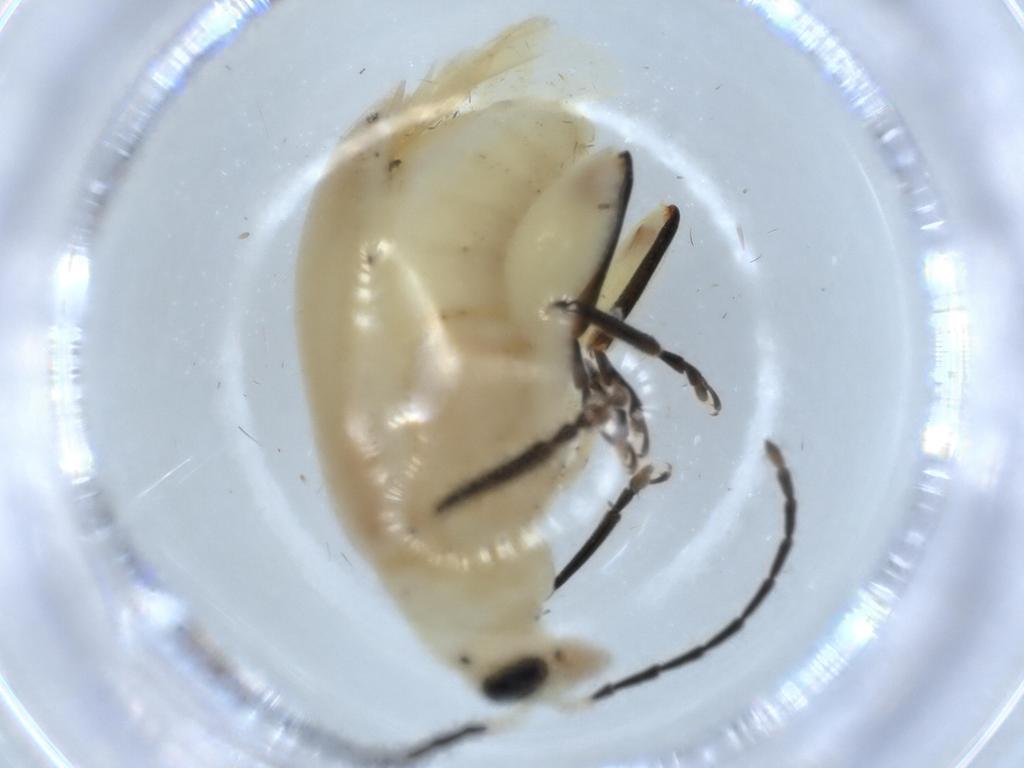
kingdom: Animalia
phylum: Arthropoda
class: Insecta
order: Coleoptera
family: Chrysomelidae
